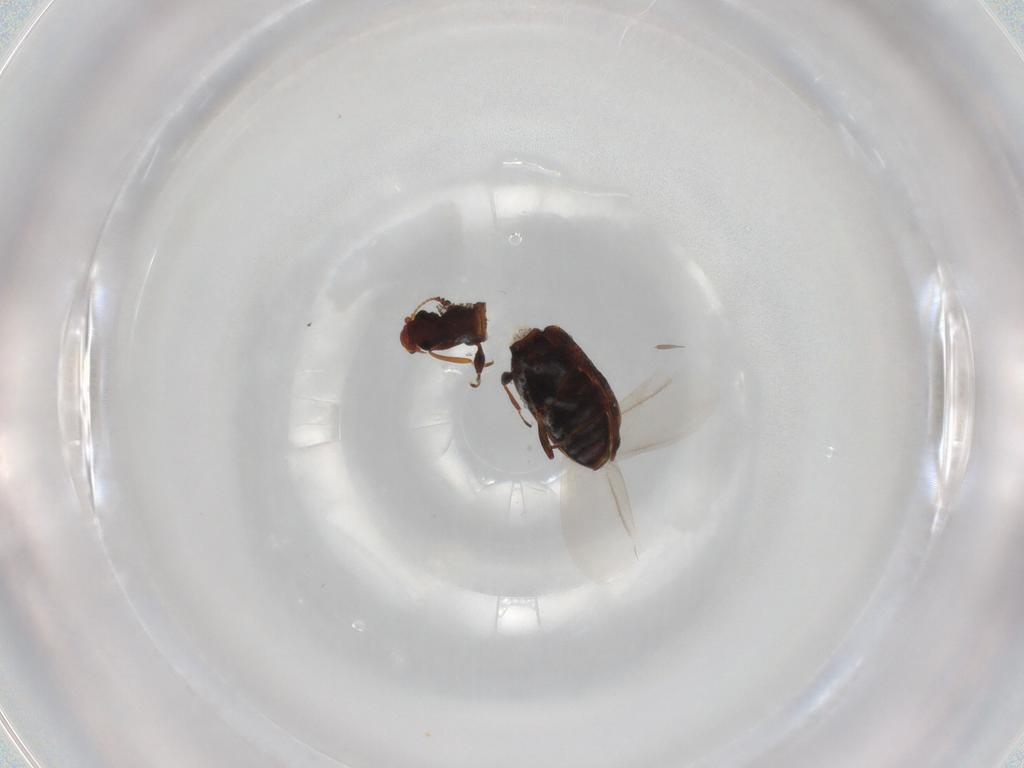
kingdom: Animalia
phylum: Arthropoda
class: Insecta
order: Coleoptera
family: Latridiidae
